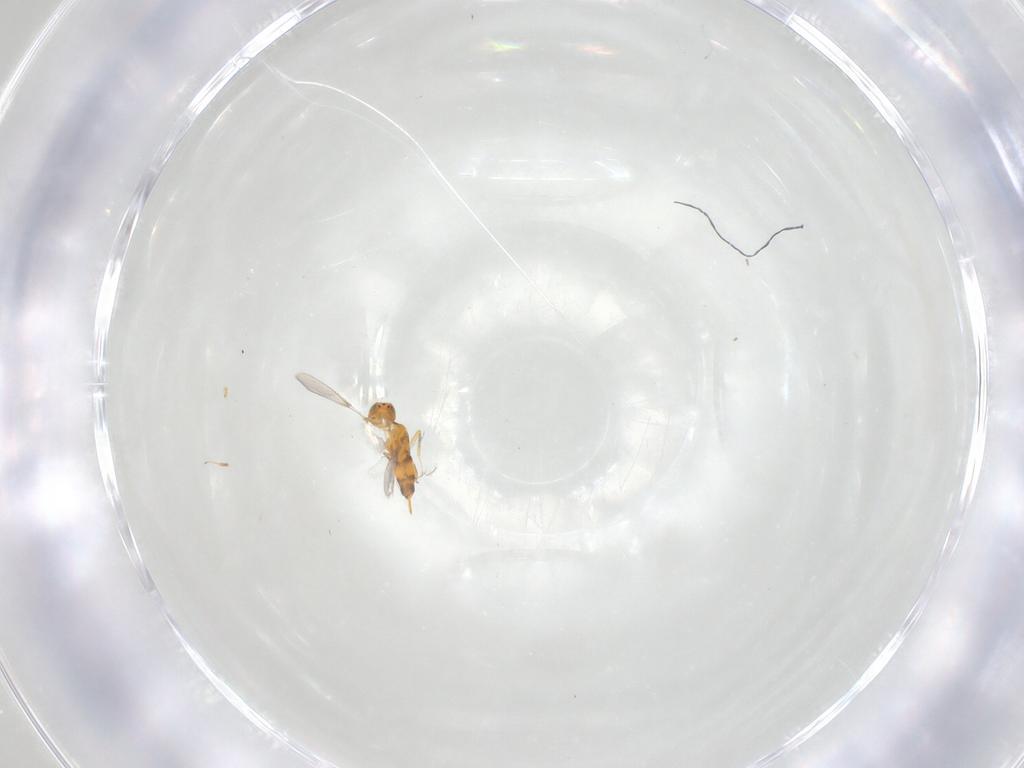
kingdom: Animalia
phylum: Arthropoda
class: Insecta
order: Hymenoptera
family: Aphelinidae
